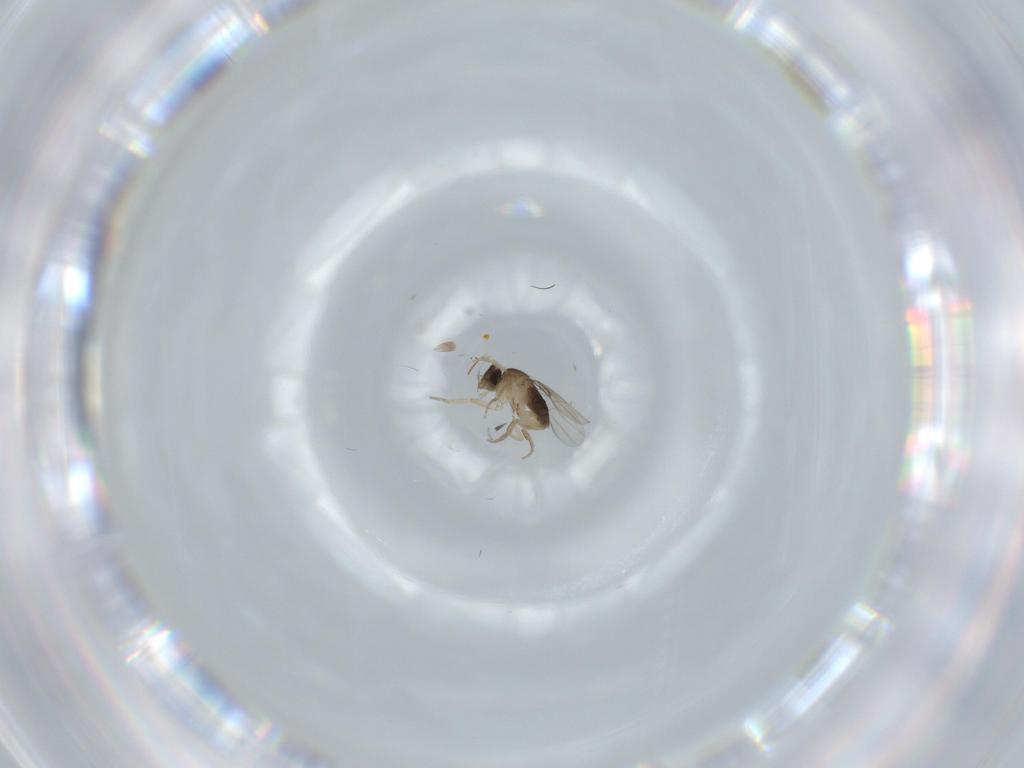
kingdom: Animalia
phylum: Arthropoda
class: Insecta
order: Diptera
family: Phoridae
